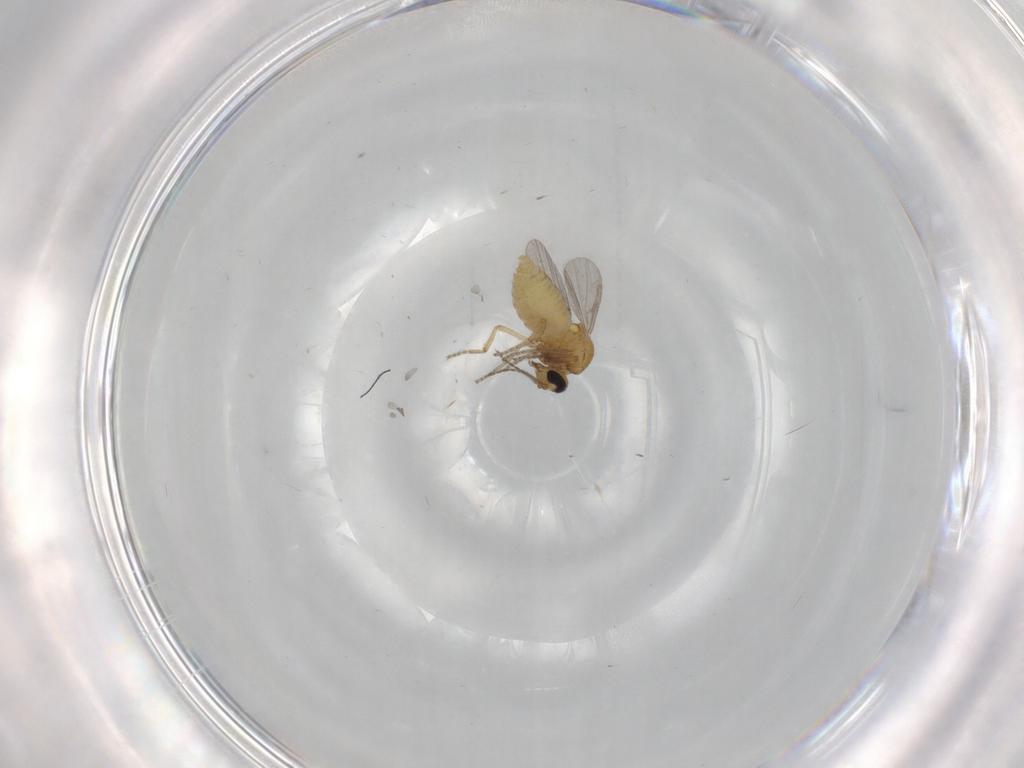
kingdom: Animalia
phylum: Arthropoda
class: Insecta
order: Diptera
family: Ceratopogonidae
